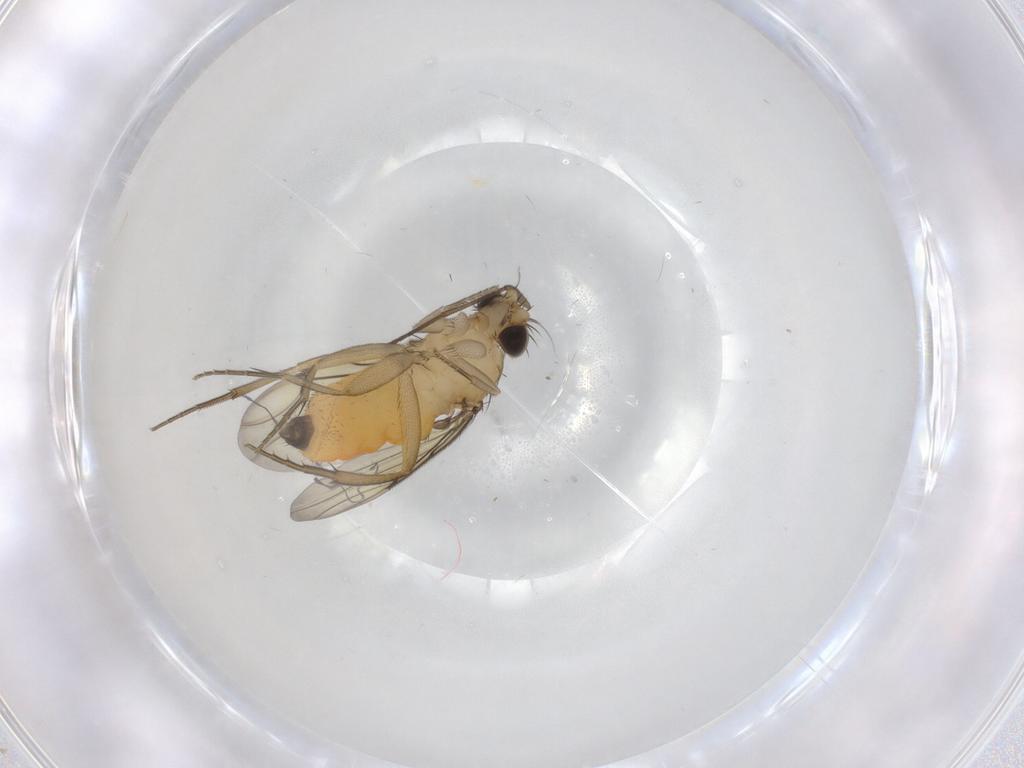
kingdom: Animalia
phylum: Arthropoda
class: Insecta
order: Diptera
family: Sciaridae
